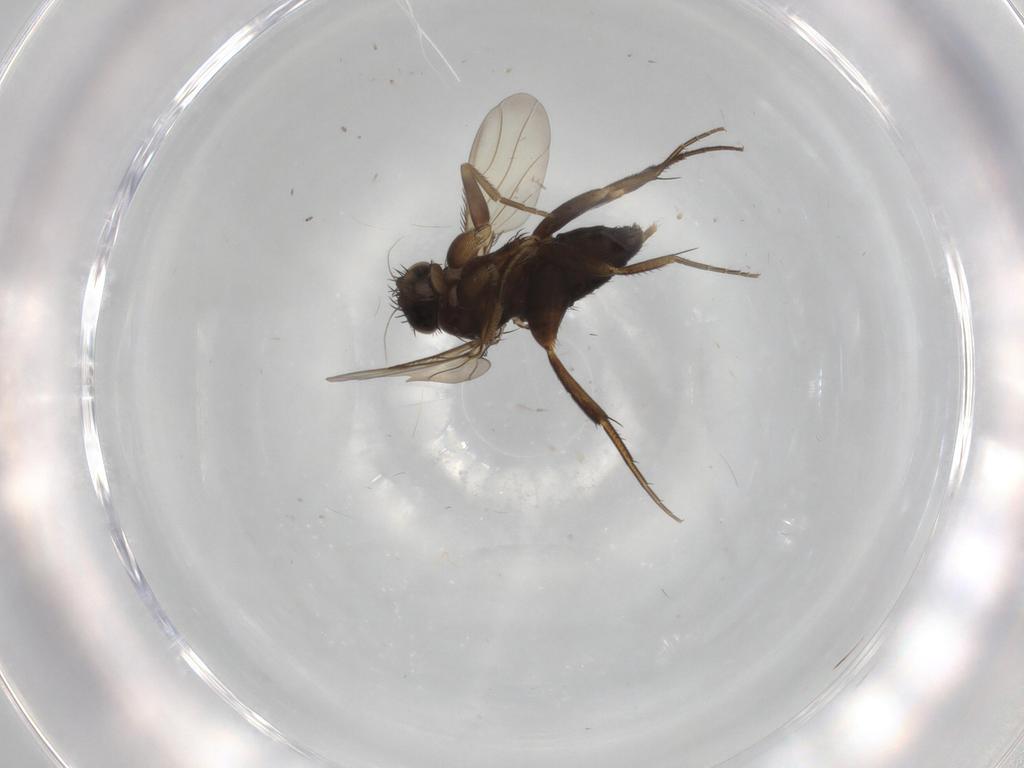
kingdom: Animalia
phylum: Arthropoda
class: Insecta
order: Diptera
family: Phoridae
